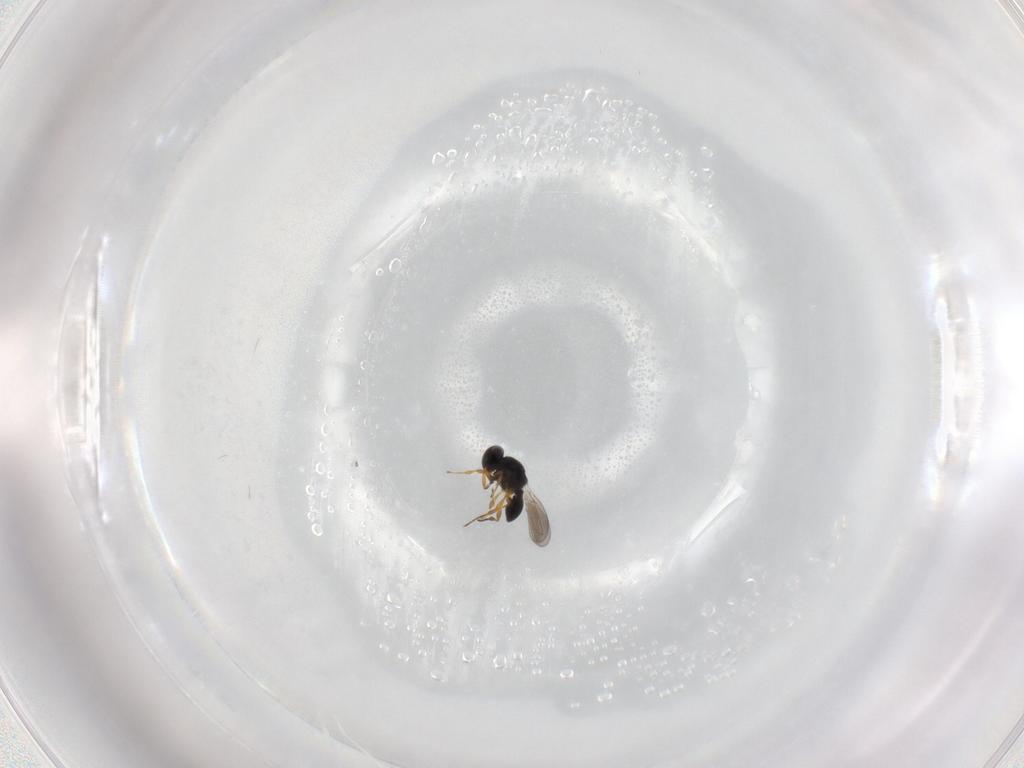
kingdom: Animalia
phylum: Arthropoda
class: Insecta
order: Hymenoptera
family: Platygastridae
